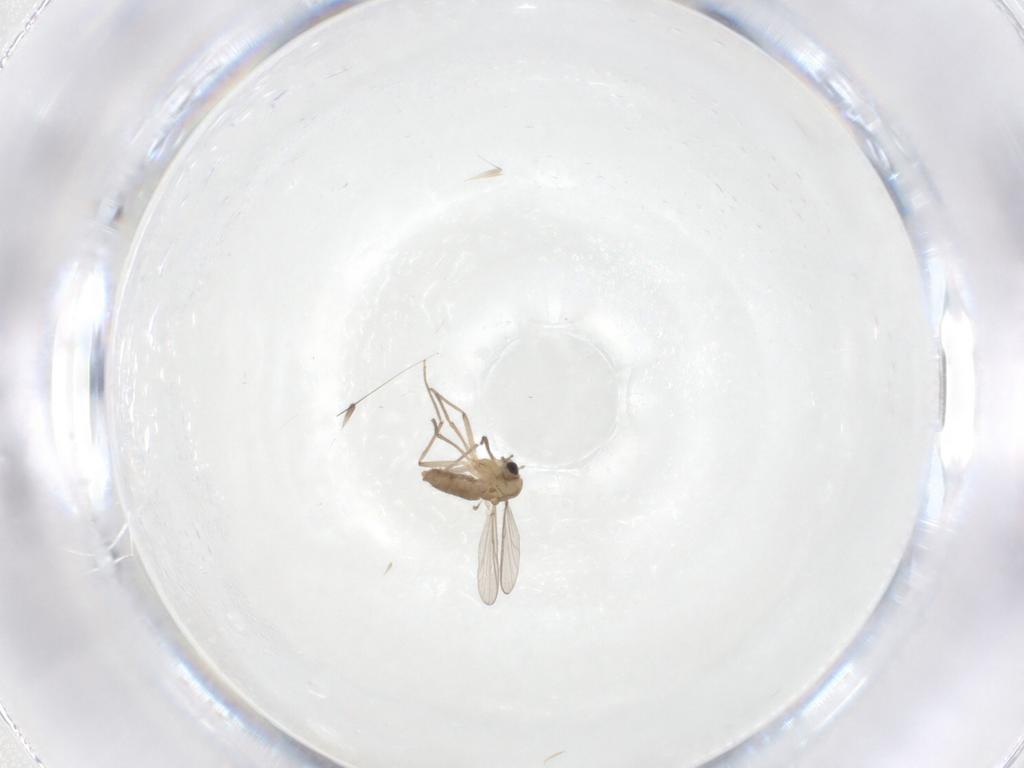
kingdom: Animalia
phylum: Arthropoda
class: Insecta
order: Diptera
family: Chironomidae
